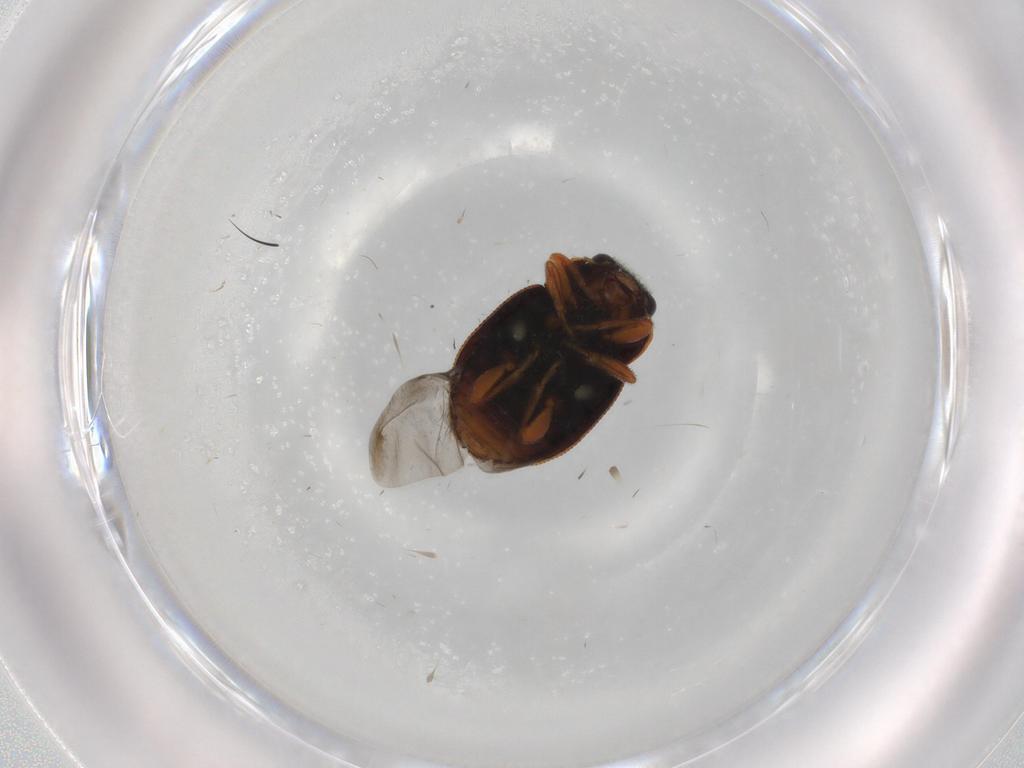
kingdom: Animalia
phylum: Arthropoda
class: Insecta
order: Coleoptera
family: Coccinellidae
